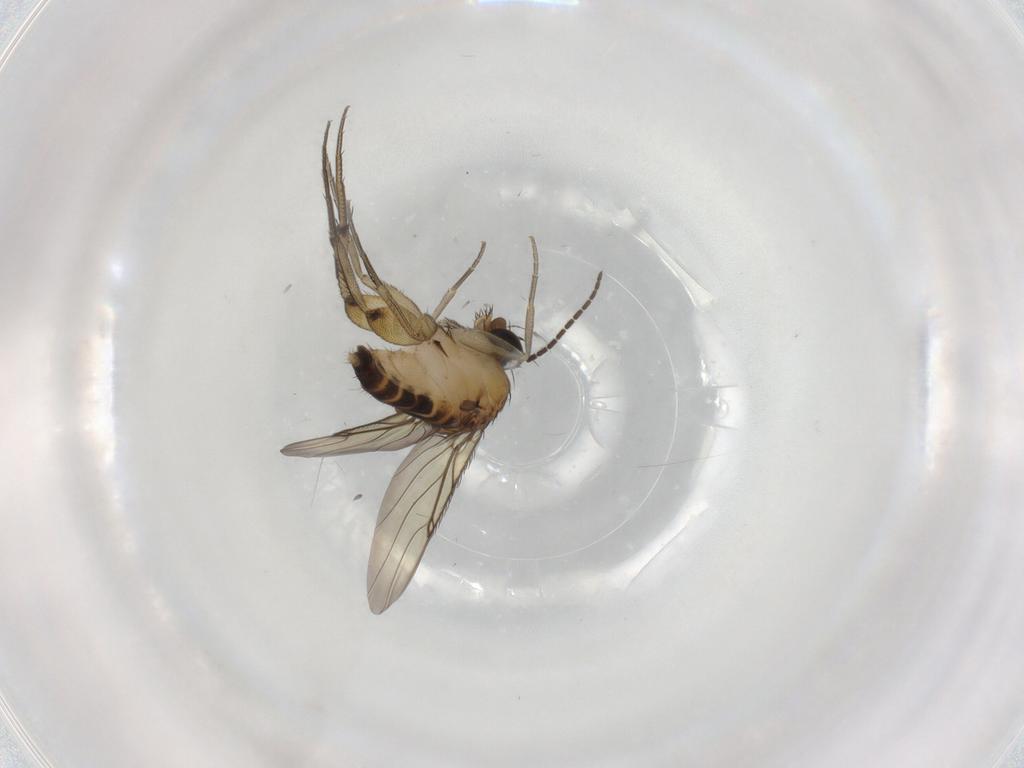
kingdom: Animalia
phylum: Arthropoda
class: Insecta
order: Diptera
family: Phoridae
